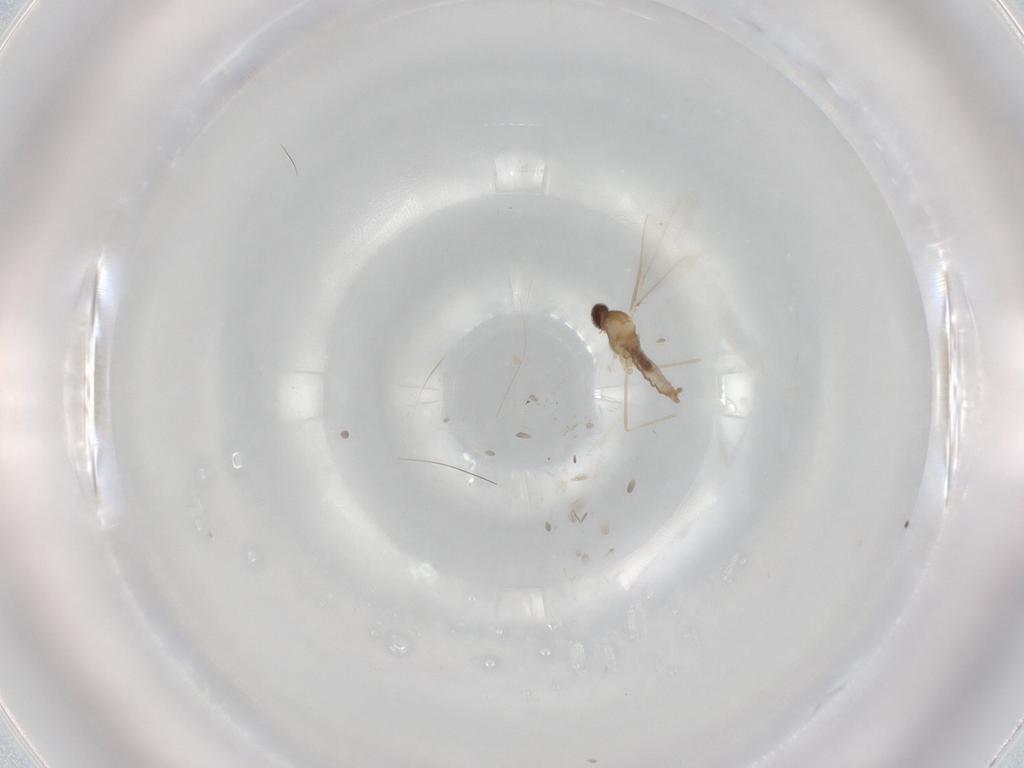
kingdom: Animalia
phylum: Arthropoda
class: Insecta
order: Diptera
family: Cecidomyiidae
